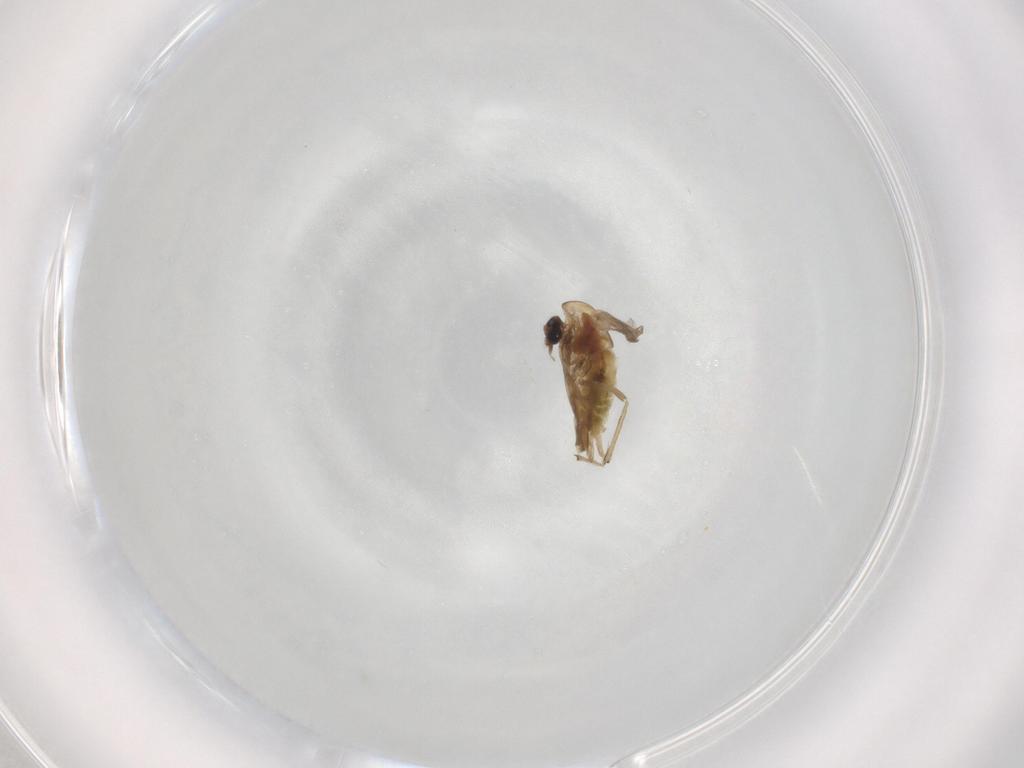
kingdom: Animalia
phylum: Arthropoda
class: Insecta
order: Diptera
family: Chironomidae
